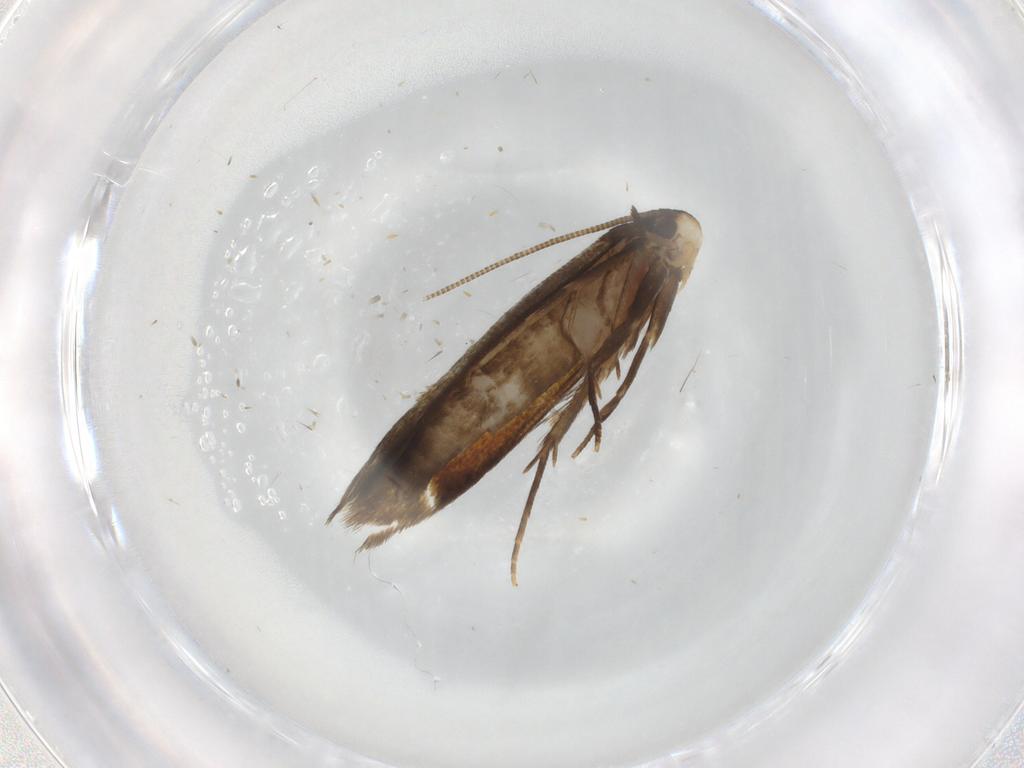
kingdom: Animalia
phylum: Arthropoda
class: Insecta
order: Lepidoptera
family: Tineidae
